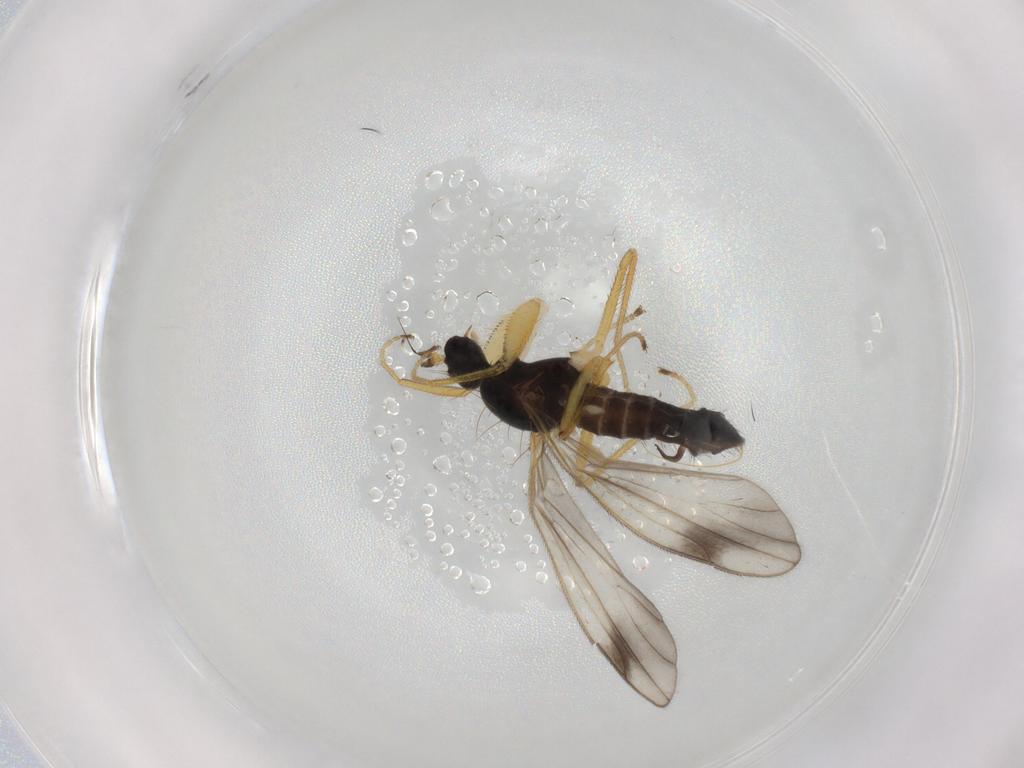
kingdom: Animalia
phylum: Arthropoda
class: Insecta
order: Diptera
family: Empididae
